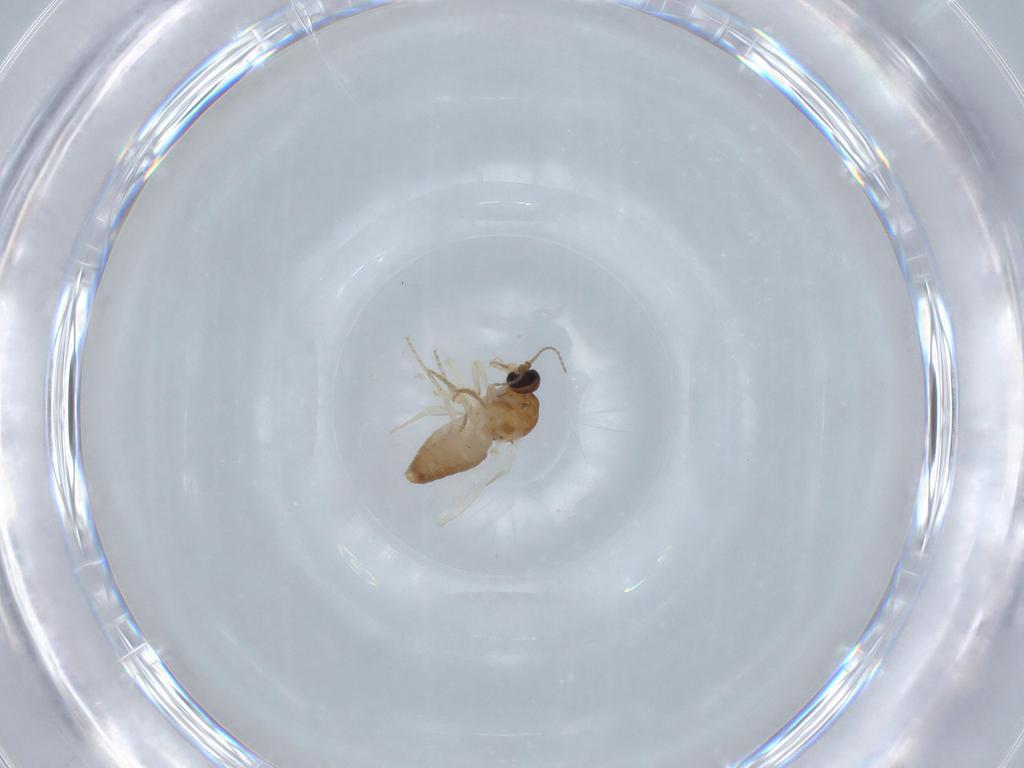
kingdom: Animalia
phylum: Arthropoda
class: Insecta
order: Diptera
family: Ceratopogonidae
